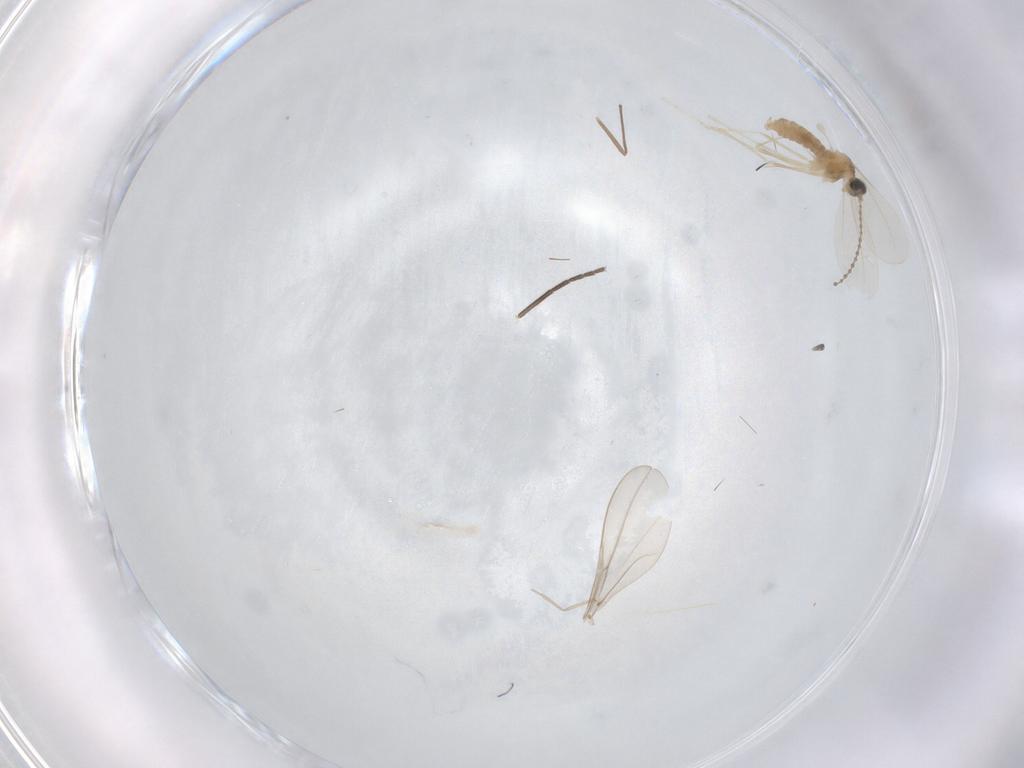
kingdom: Animalia
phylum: Arthropoda
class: Insecta
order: Diptera
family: Cecidomyiidae
